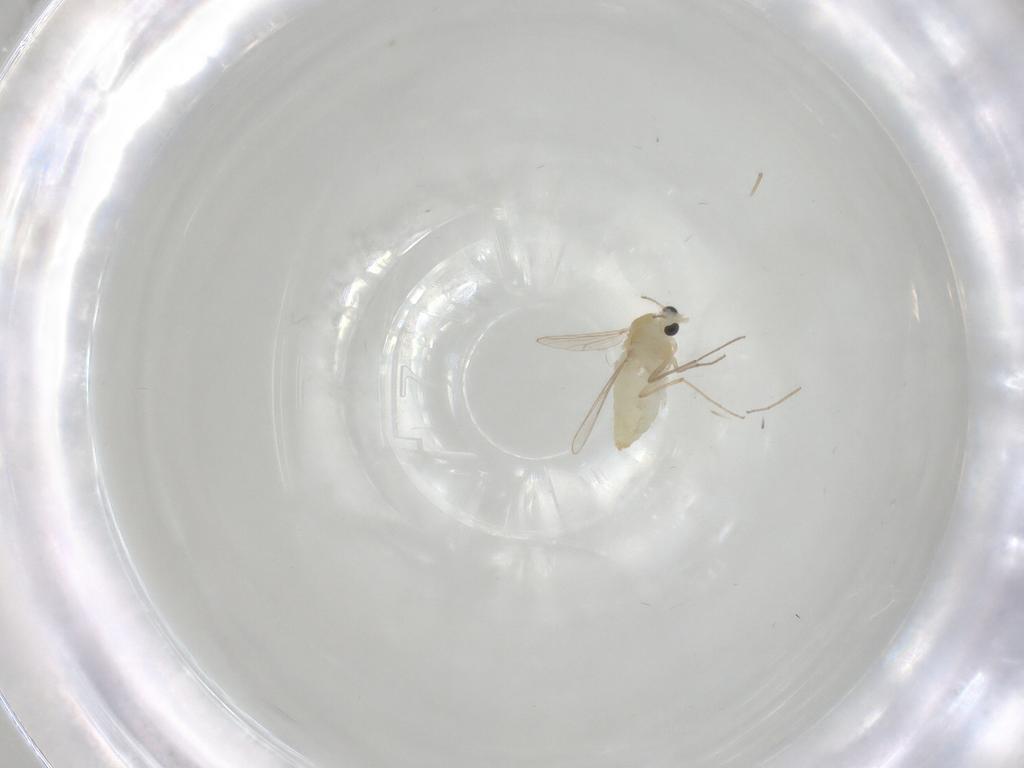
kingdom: Animalia
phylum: Arthropoda
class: Insecta
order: Diptera
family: Chironomidae
